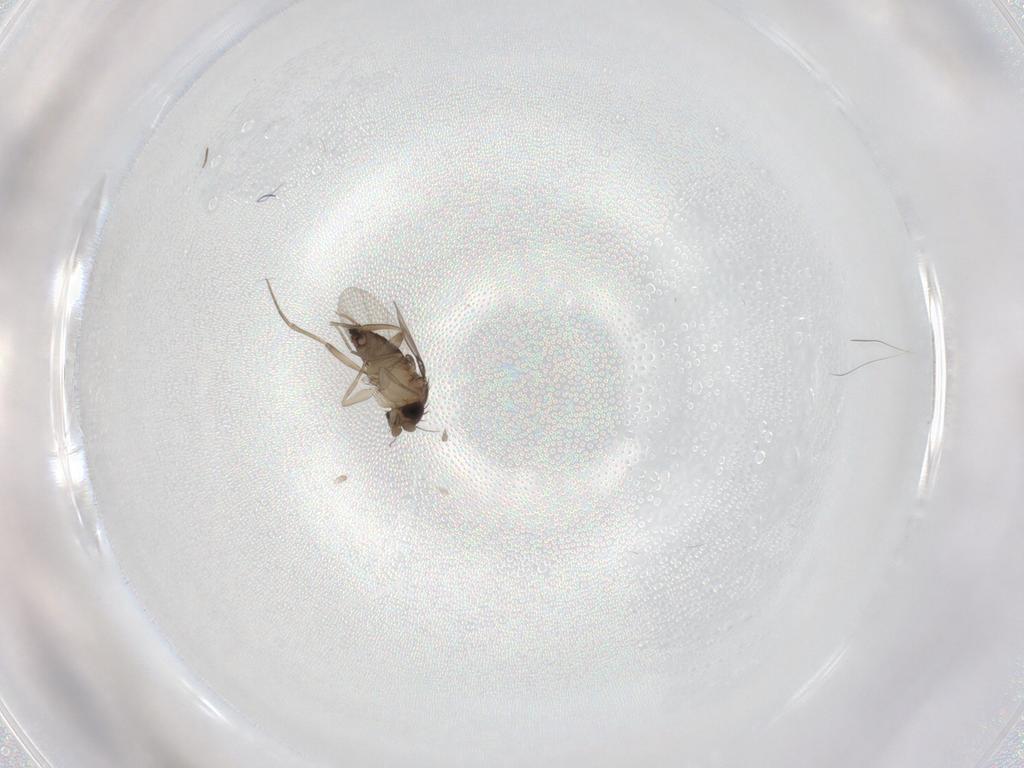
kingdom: Animalia
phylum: Arthropoda
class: Insecta
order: Diptera
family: Phoridae
